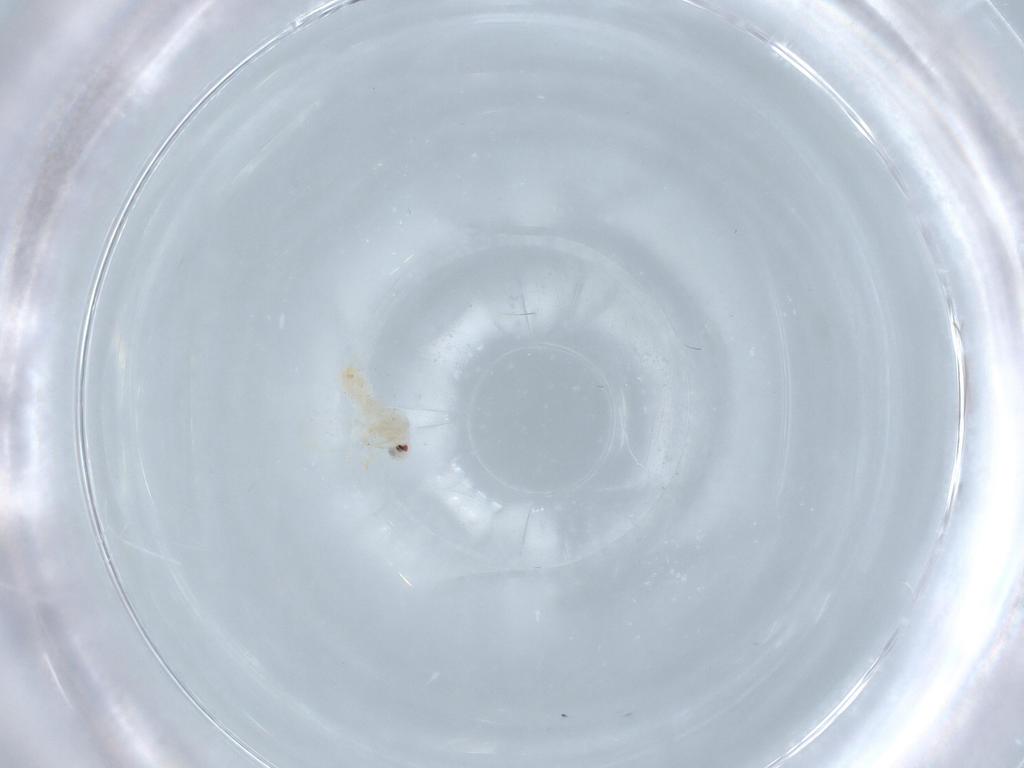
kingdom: Animalia
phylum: Arthropoda
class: Insecta
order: Hemiptera
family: Aleyrodidae
